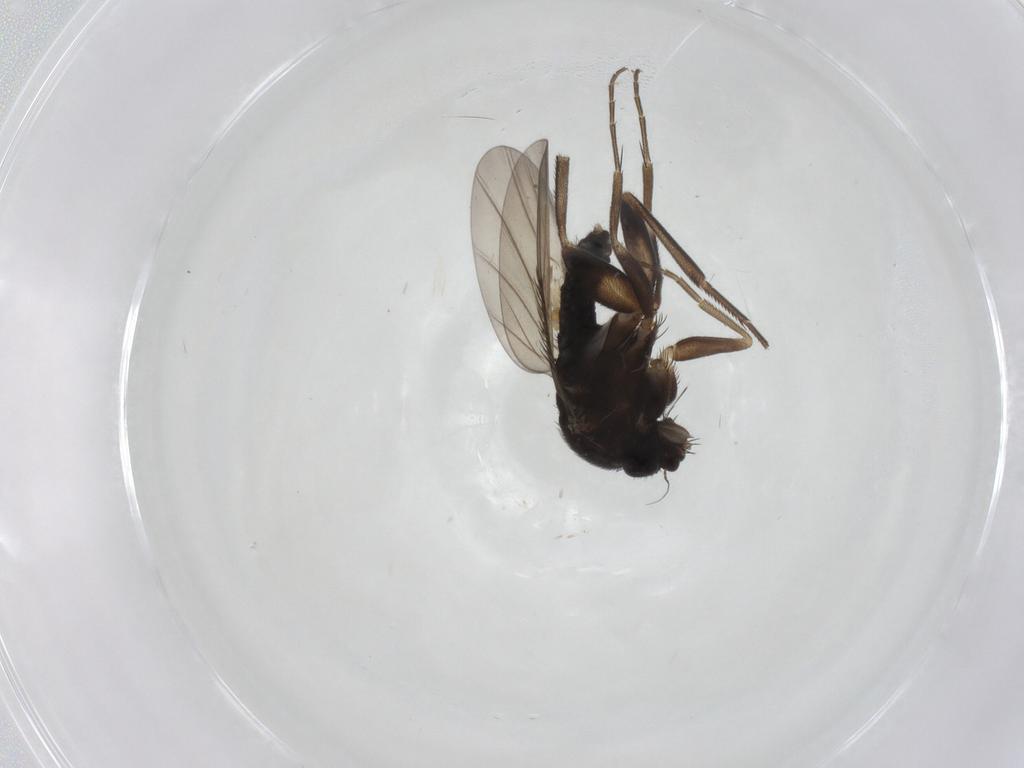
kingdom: Animalia
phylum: Arthropoda
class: Insecta
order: Diptera
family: Phoridae
